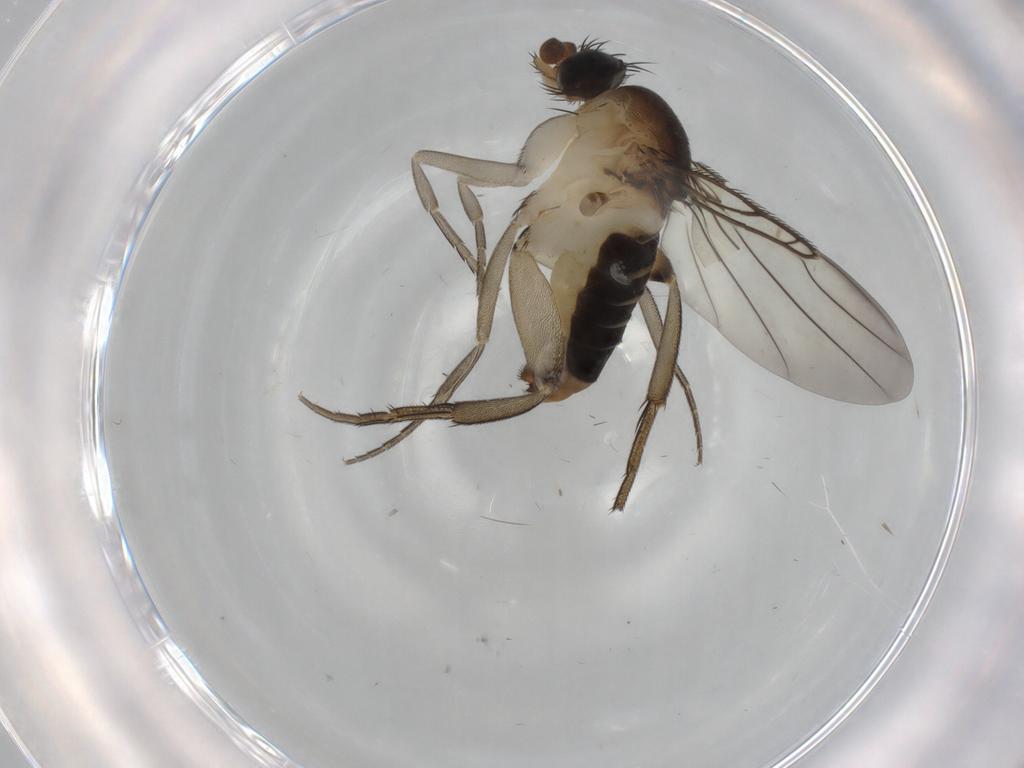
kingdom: Animalia
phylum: Arthropoda
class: Insecta
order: Diptera
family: Phoridae
